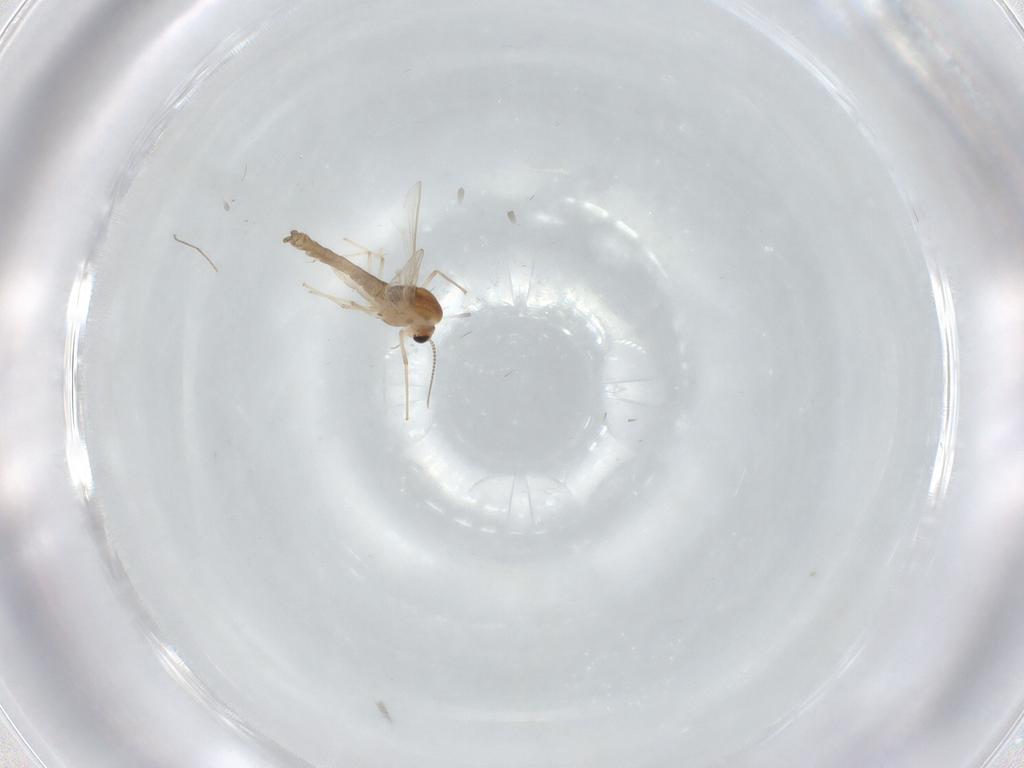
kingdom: Animalia
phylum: Arthropoda
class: Insecta
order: Diptera
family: Chironomidae
